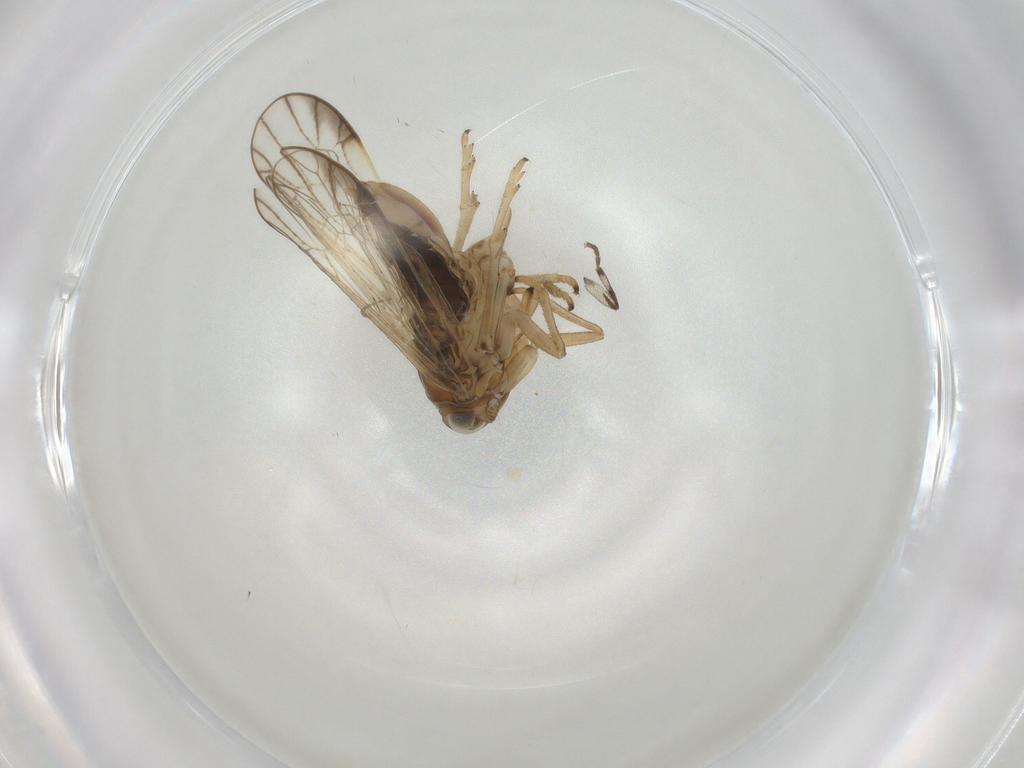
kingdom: Animalia
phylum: Arthropoda
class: Insecta
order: Hemiptera
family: Delphacidae
